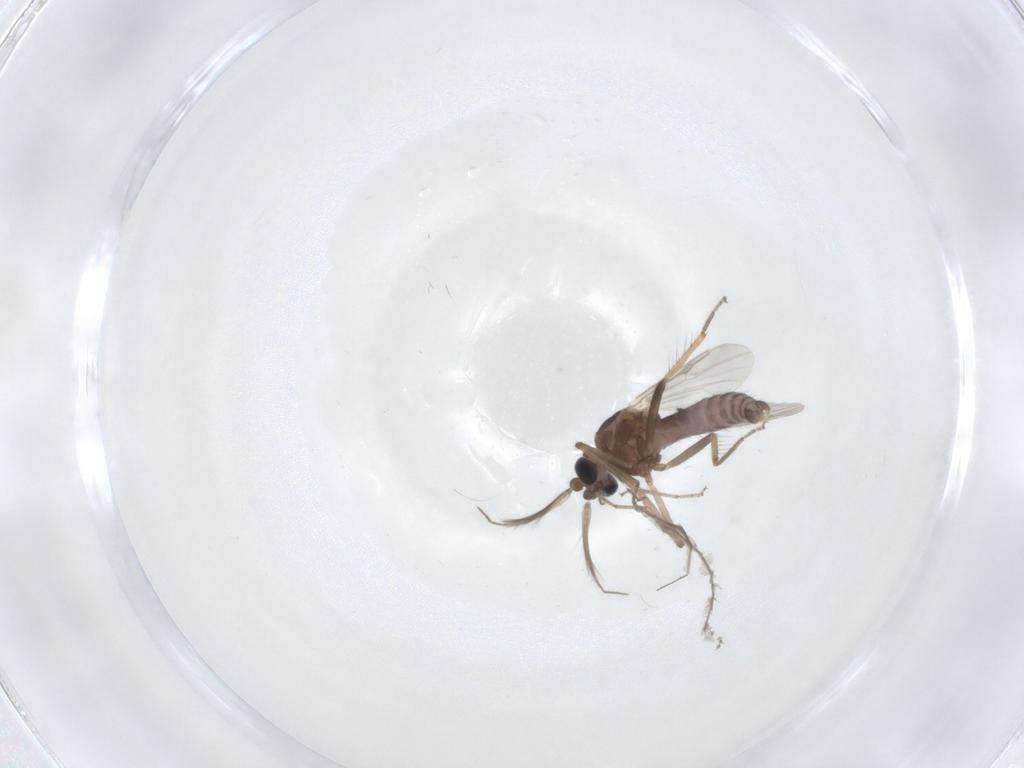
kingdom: Animalia
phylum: Arthropoda
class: Insecta
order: Diptera
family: Ceratopogonidae
